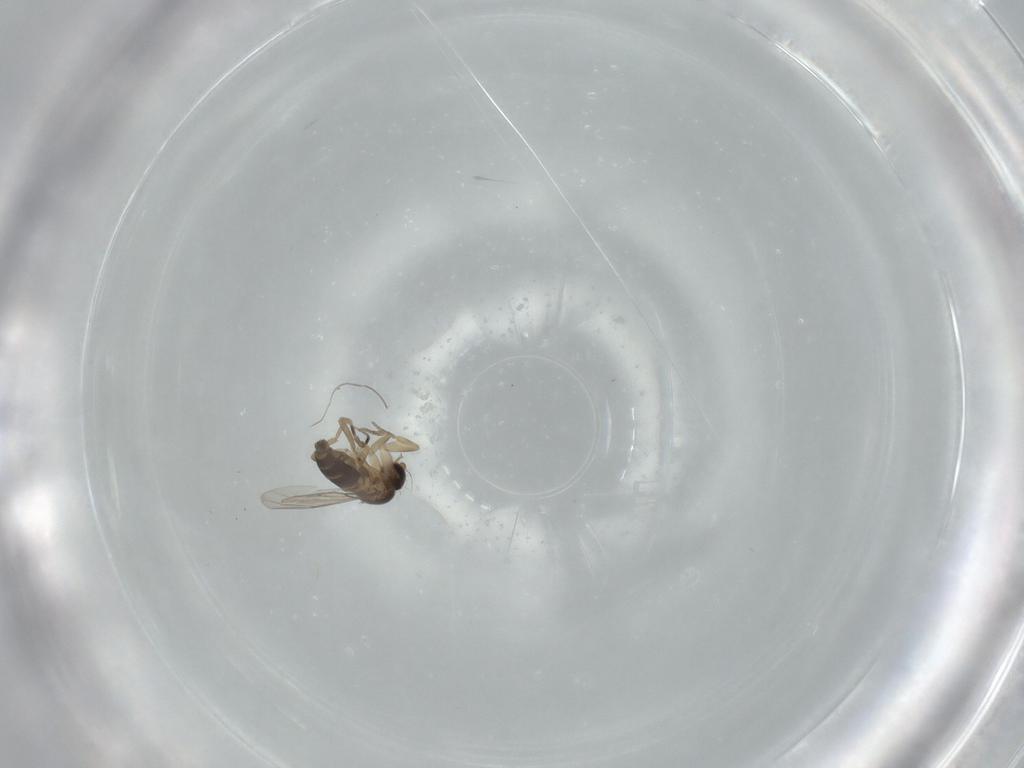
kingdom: Animalia
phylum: Arthropoda
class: Insecta
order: Diptera
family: Phoridae
